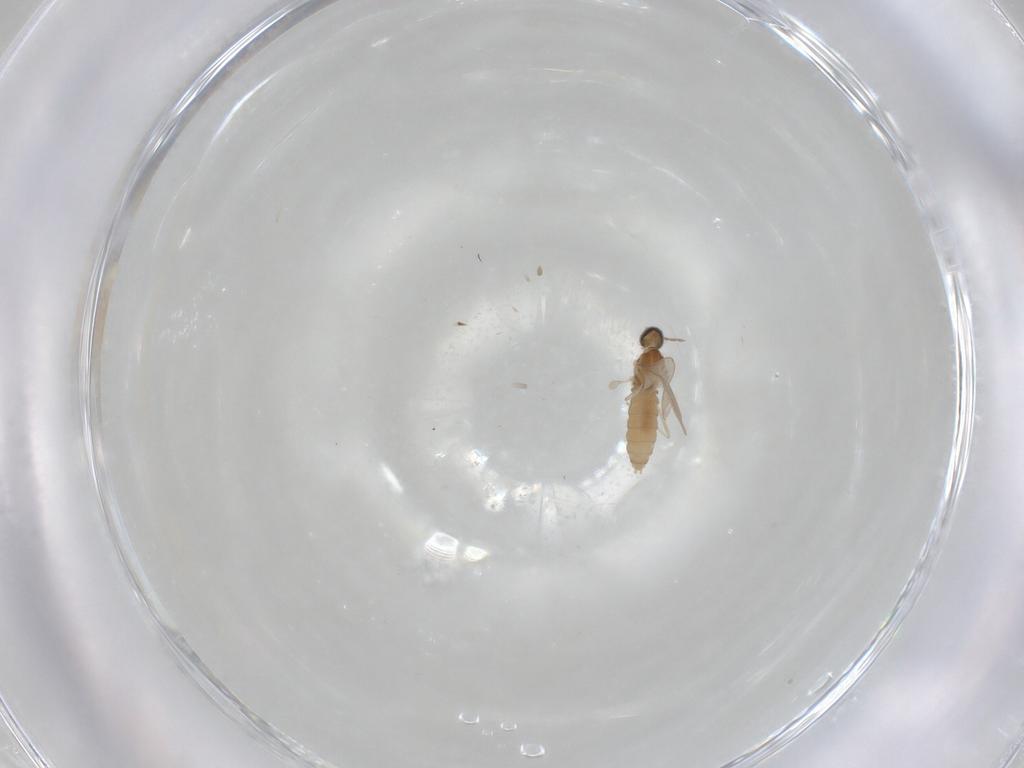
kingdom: Animalia
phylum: Arthropoda
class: Insecta
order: Diptera
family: Cecidomyiidae
